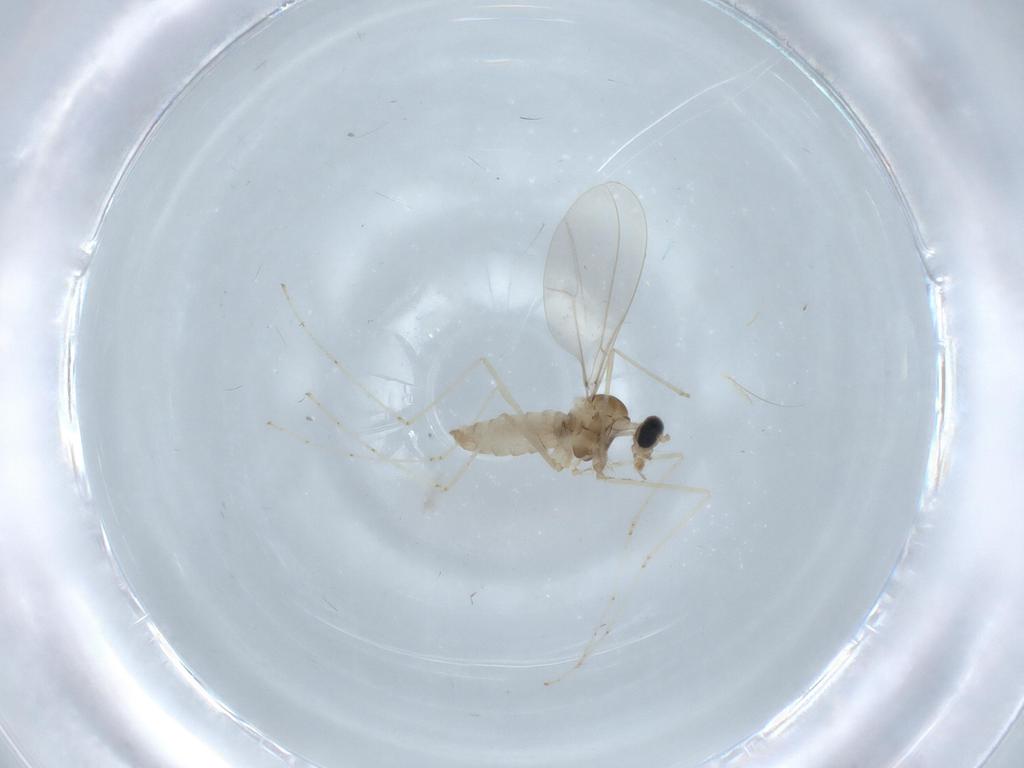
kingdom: Animalia
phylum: Arthropoda
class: Insecta
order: Diptera
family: Cecidomyiidae
